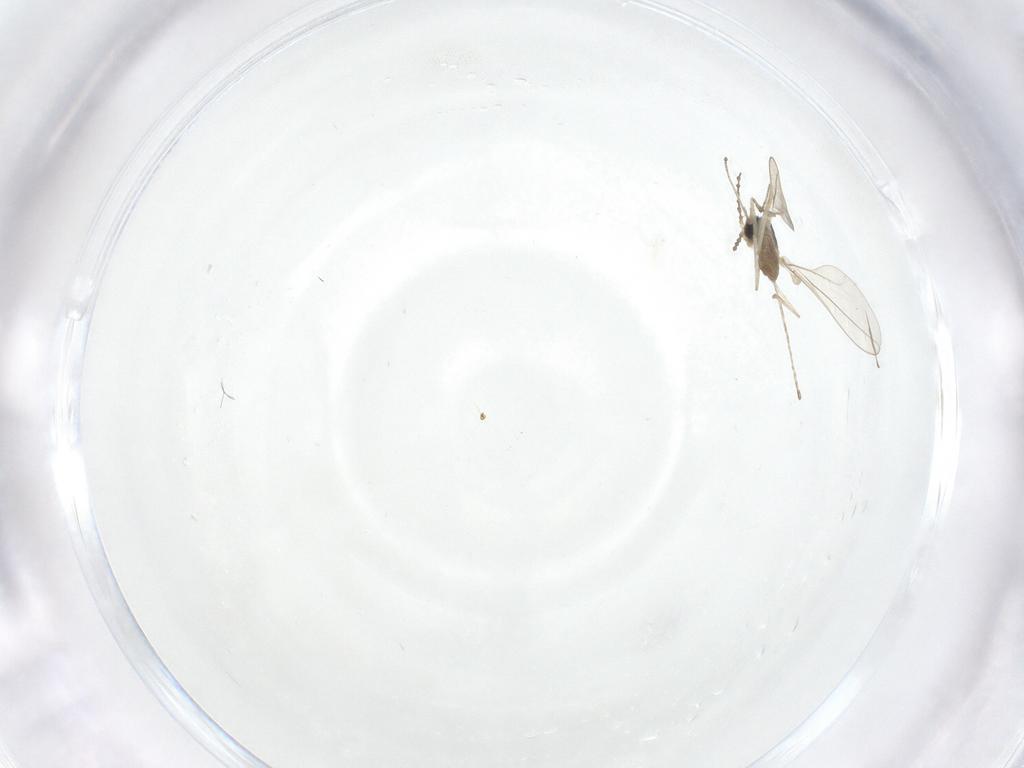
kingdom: Animalia
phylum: Arthropoda
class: Insecta
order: Diptera
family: Cecidomyiidae
